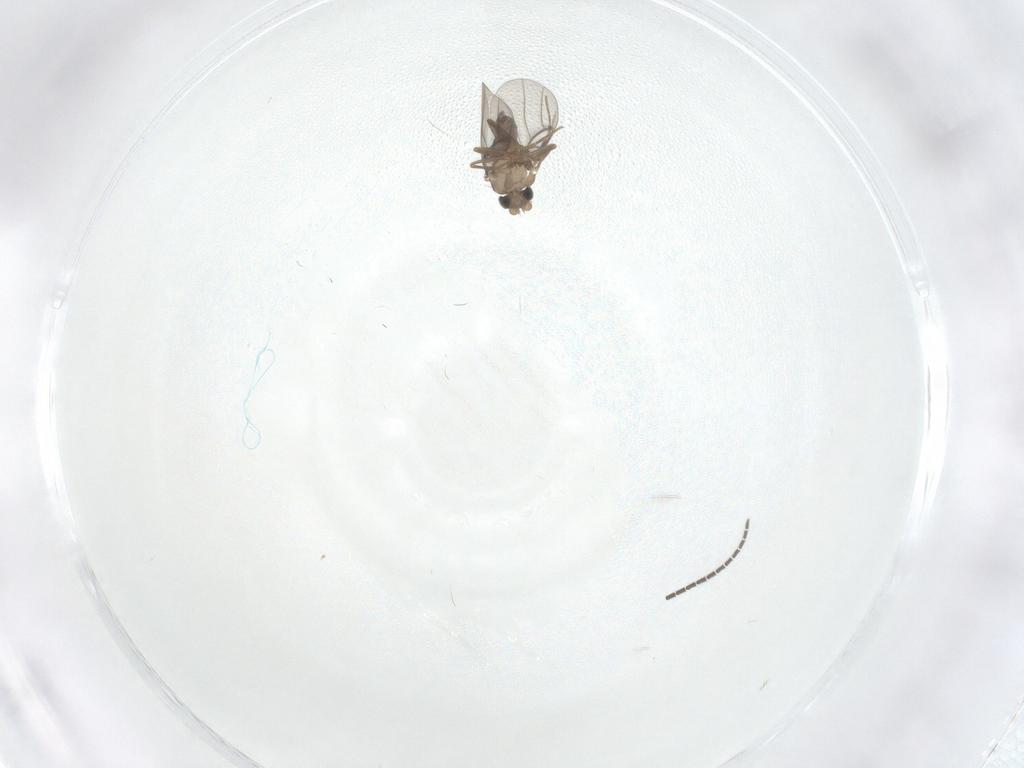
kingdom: Animalia
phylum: Arthropoda
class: Insecta
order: Diptera
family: Sciaridae
